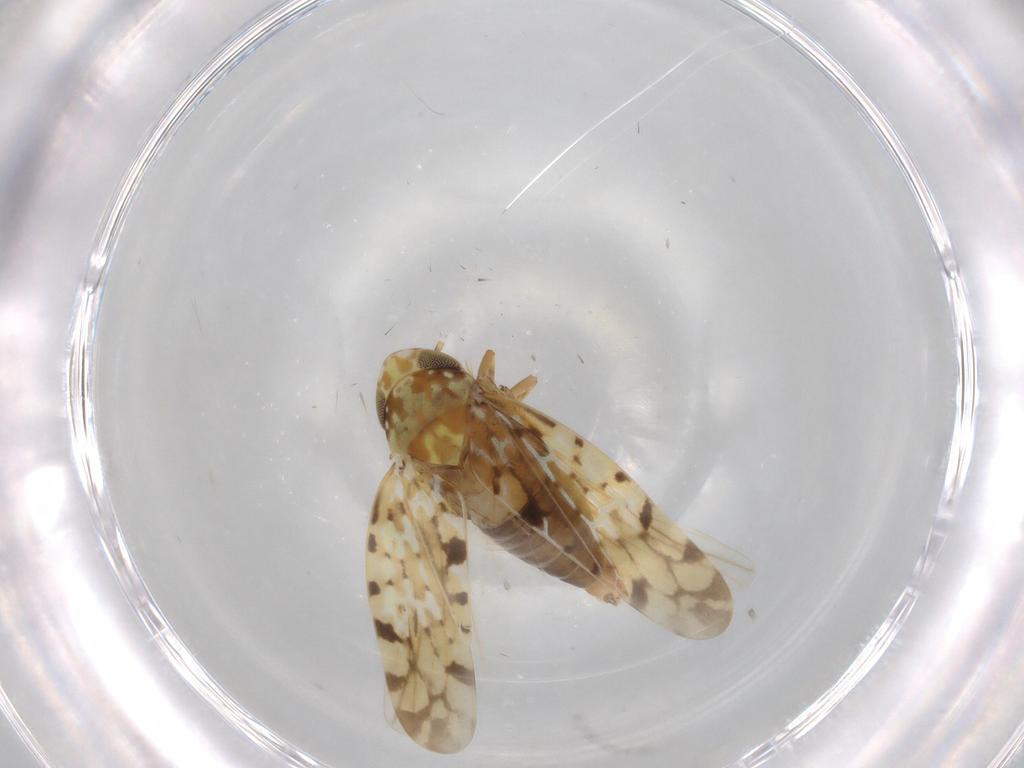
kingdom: Animalia
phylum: Arthropoda
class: Insecta
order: Hemiptera
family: Cicadellidae
